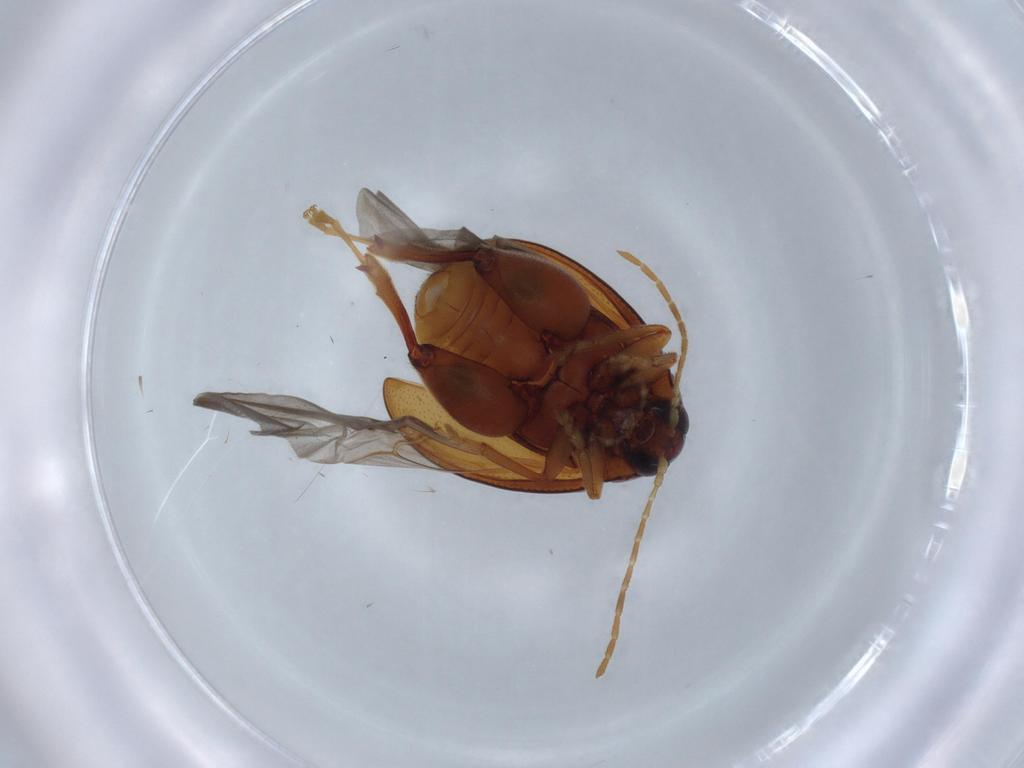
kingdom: Animalia
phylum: Arthropoda
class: Insecta
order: Coleoptera
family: Chrysomelidae
